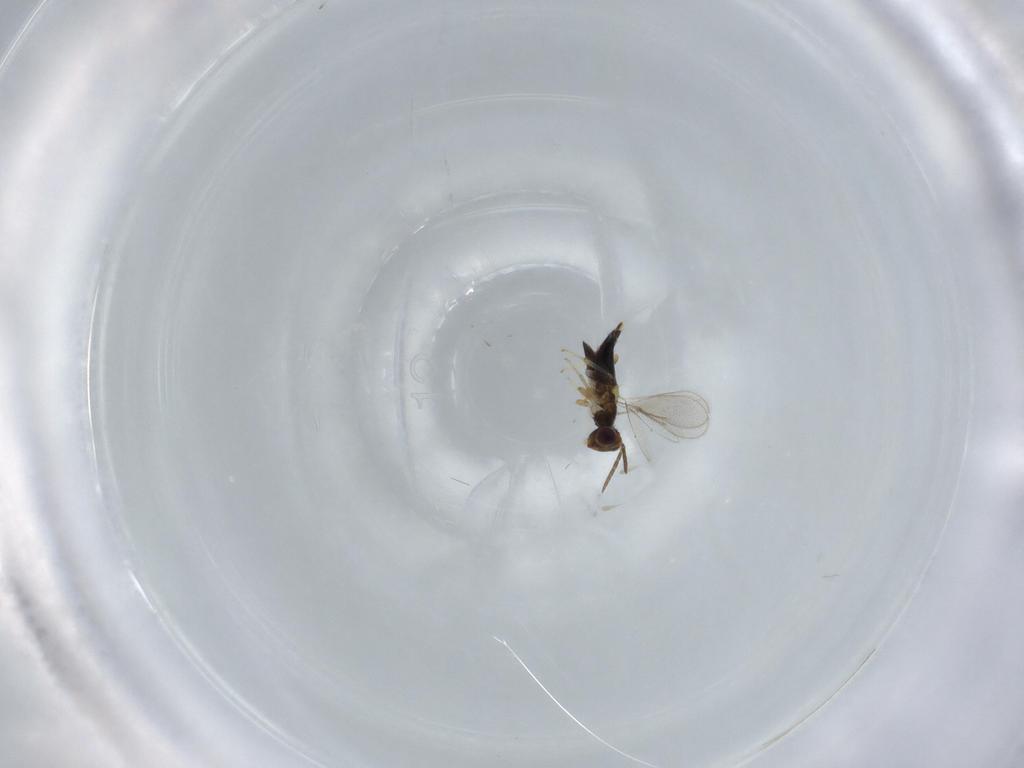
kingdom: Animalia
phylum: Arthropoda
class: Insecta
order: Hymenoptera
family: Aphelinidae
